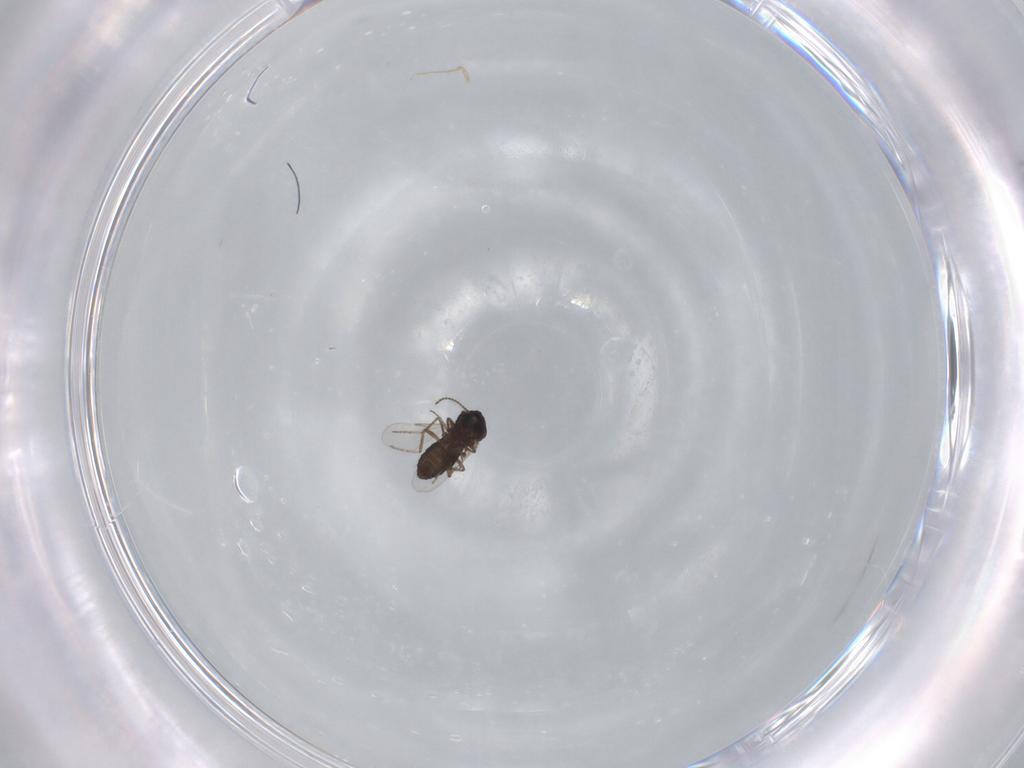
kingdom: Animalia
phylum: Arthropoda
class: Insecta
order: Diptera
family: Ceratopogonidae
